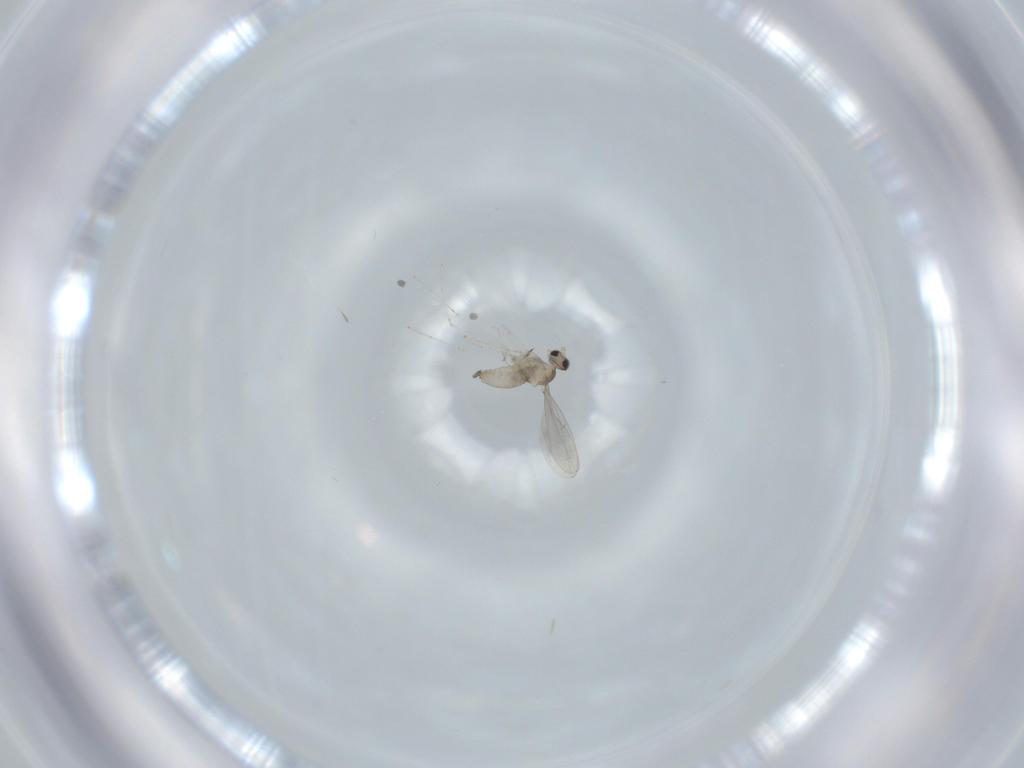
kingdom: Animalia
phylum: Arthropoda
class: Insecta
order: Diptera
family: Cecidomyiidae
